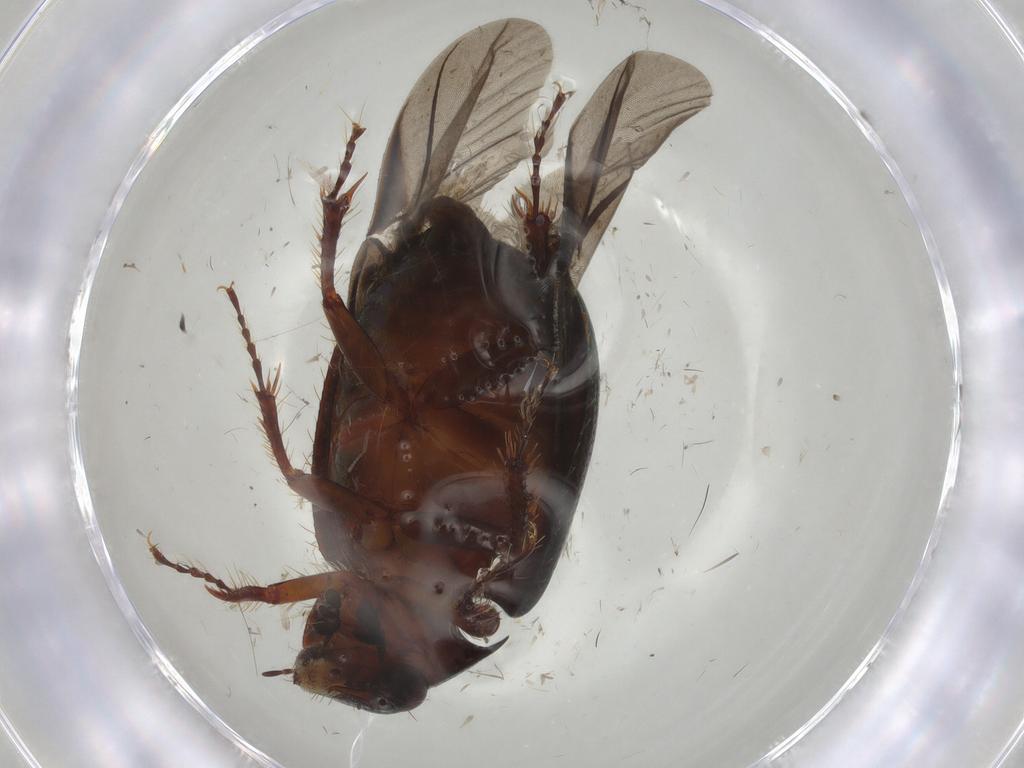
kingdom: Animalia
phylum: Arthropoda
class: Insecta
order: Coleoptera
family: Hybosoridae
